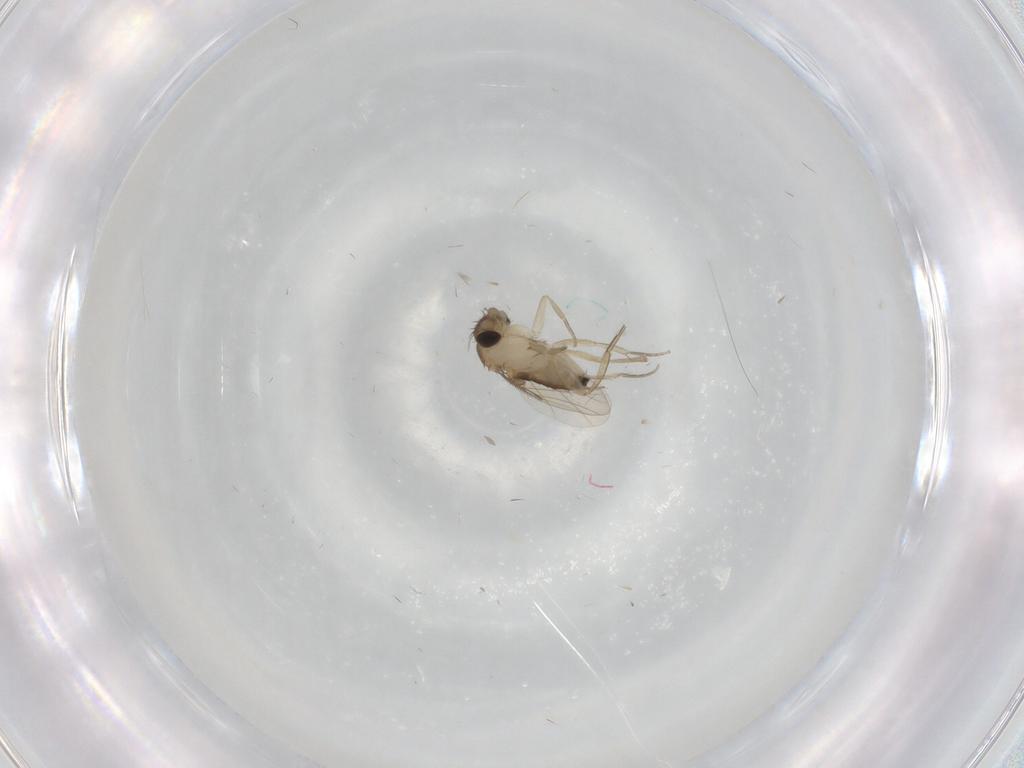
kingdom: Animalia
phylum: Arthropoda
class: Insecta
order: Diptera
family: Phoridae
